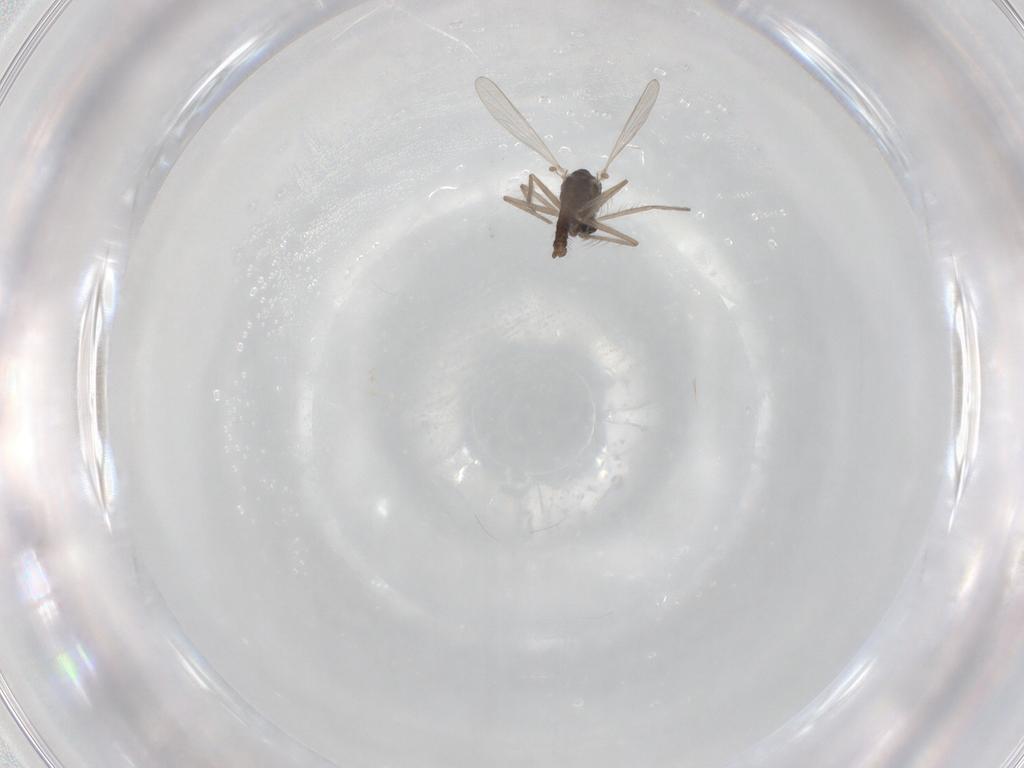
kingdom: Animalia
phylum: Arthropoda
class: Insecta
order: Diptera
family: Chironomidae
